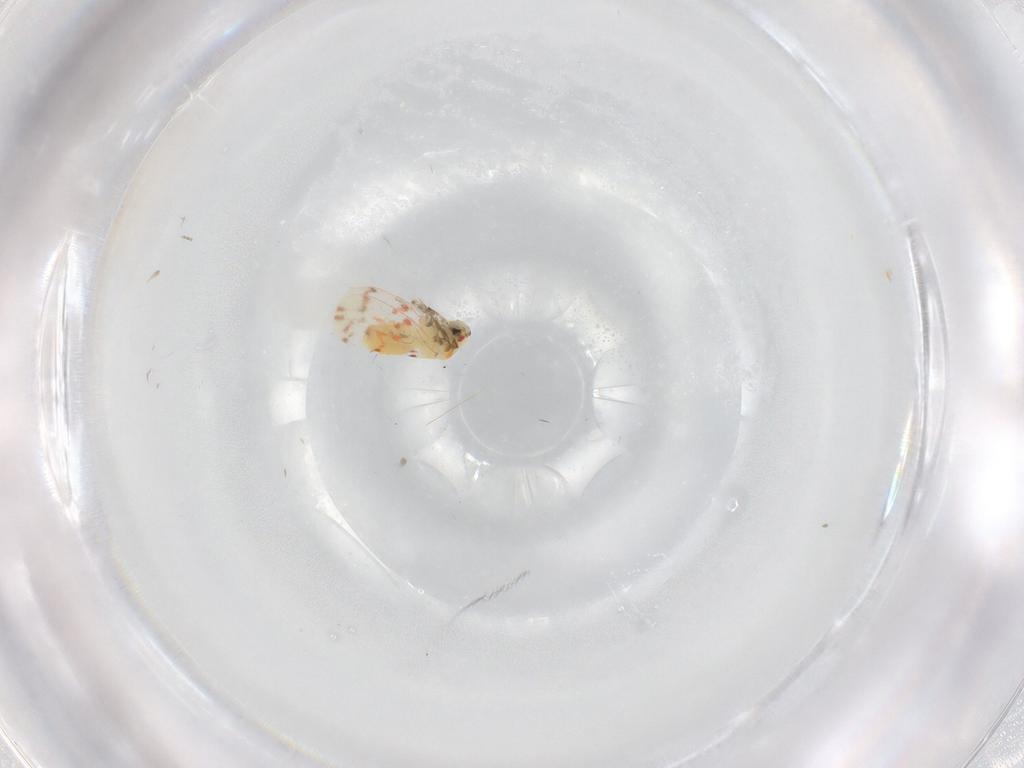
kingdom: Animalia
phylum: Arthropoda
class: Insecta
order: Diptera
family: Cecidomyiidae
